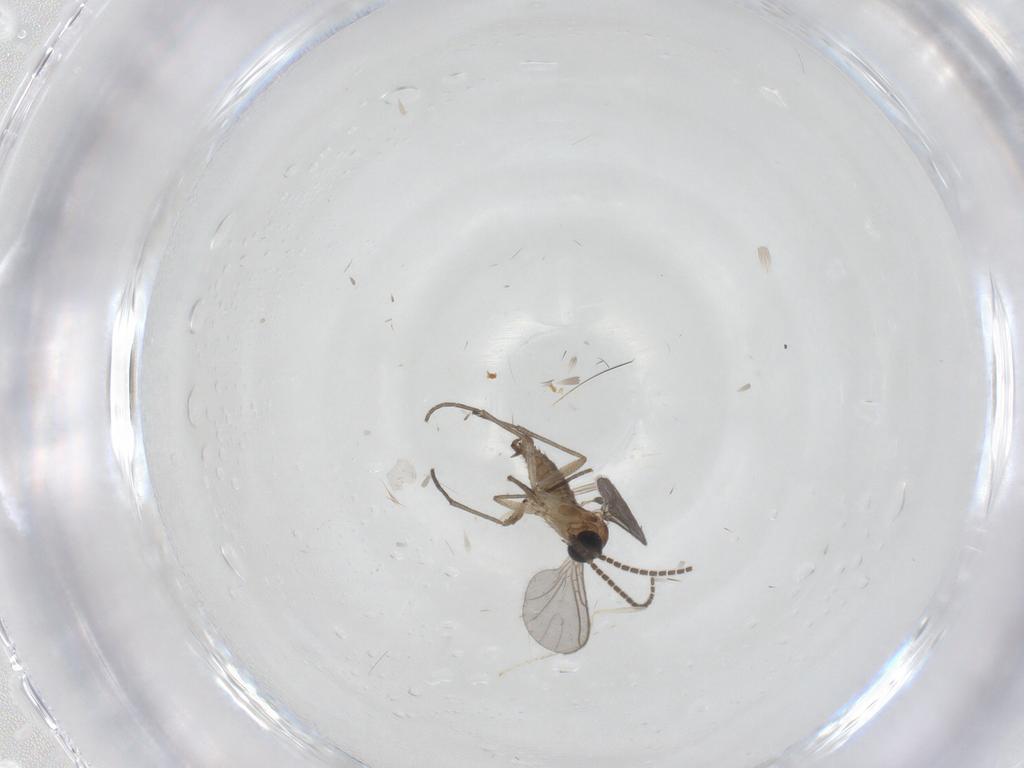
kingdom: Animalia
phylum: Arthropoda
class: Insecta
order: Diptera
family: Sciaridae
